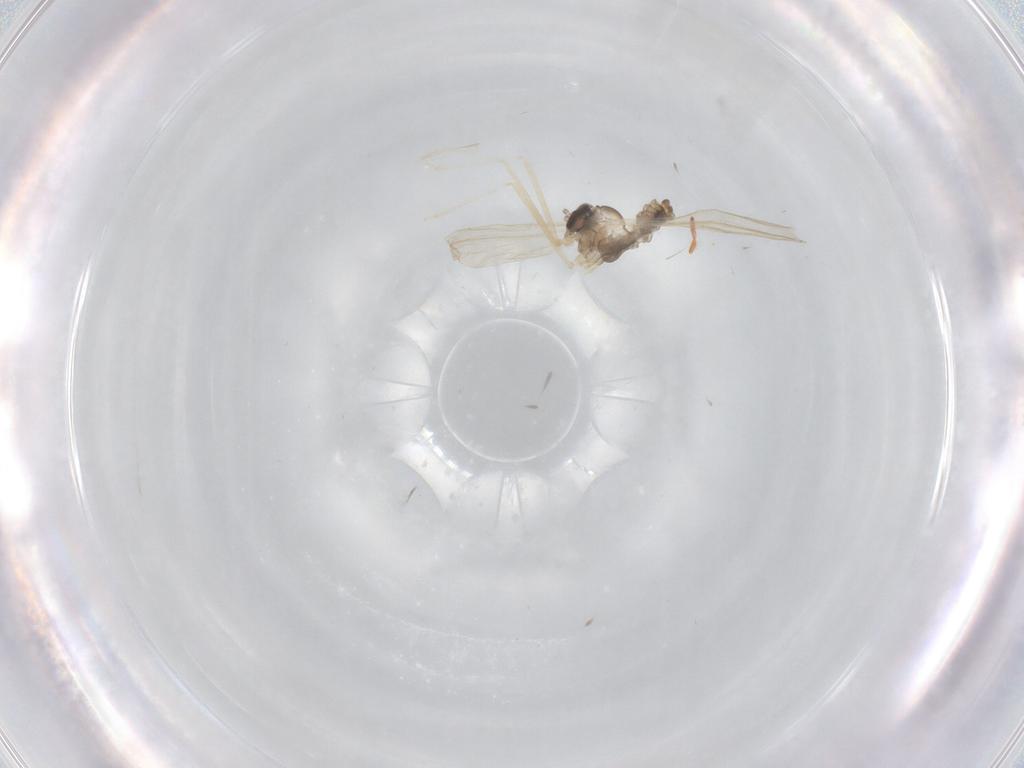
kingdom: Animalia
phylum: Arthropoda
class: Insecta
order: Diptera
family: Cecidomyiidae
